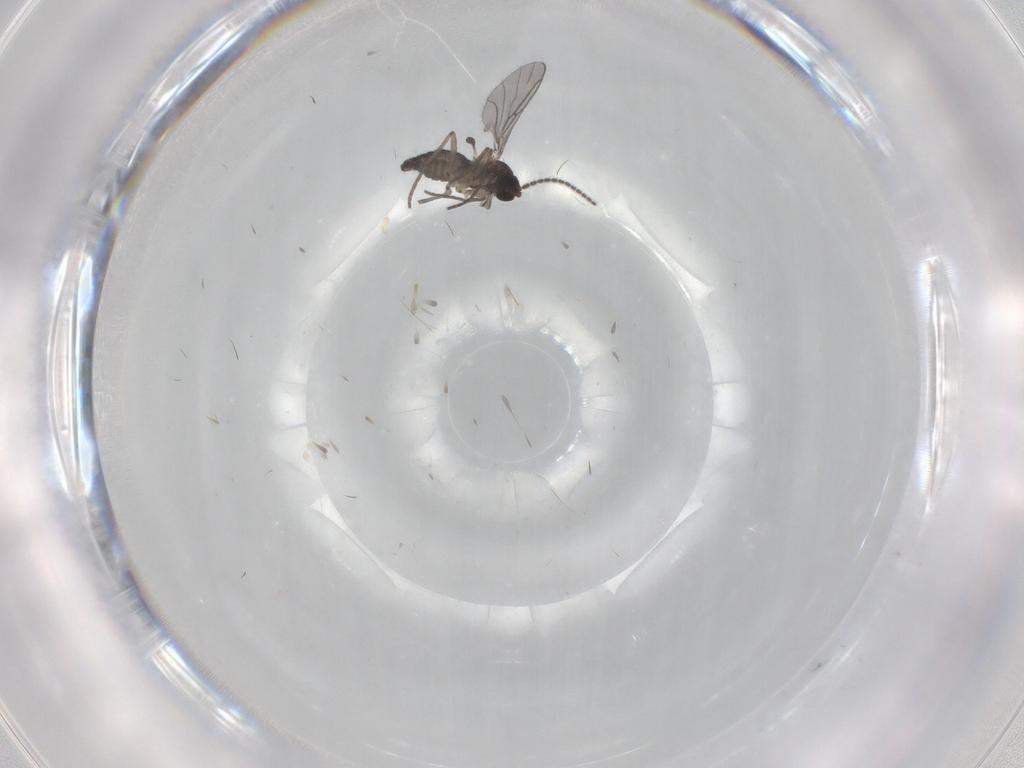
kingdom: Animalia
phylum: Arthropoda
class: Insecta
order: Diptera
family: Sciaridae
